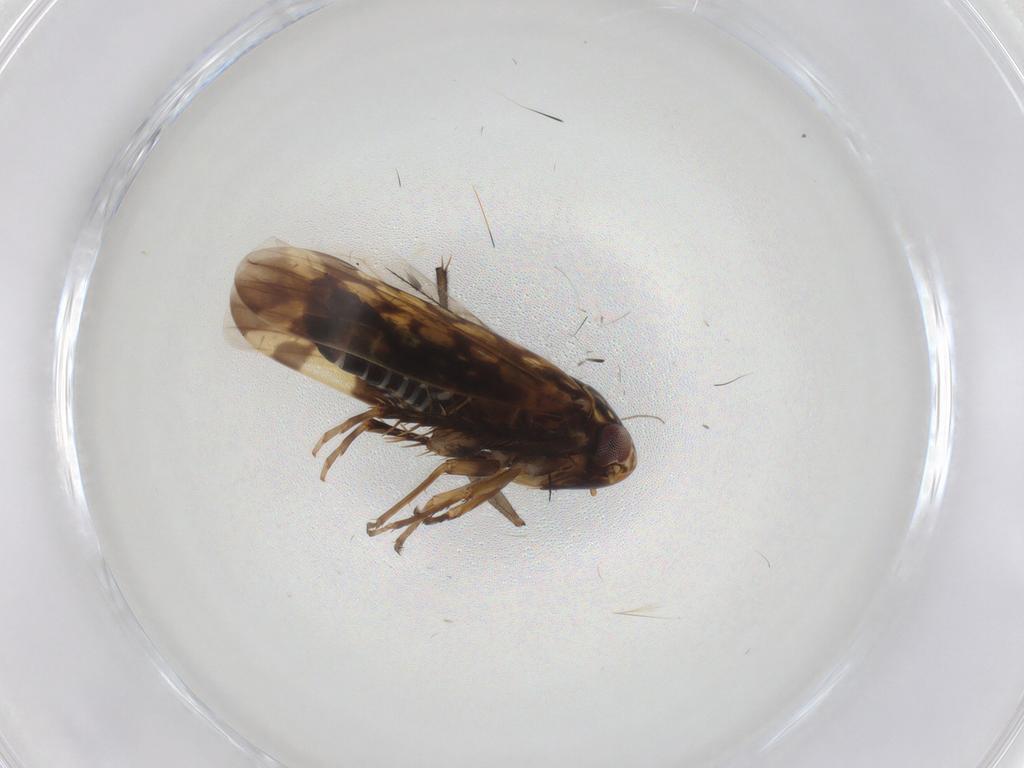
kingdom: Animalia
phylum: Arthropoda
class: Insecta
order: Hemiptera
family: Cicadellidae
